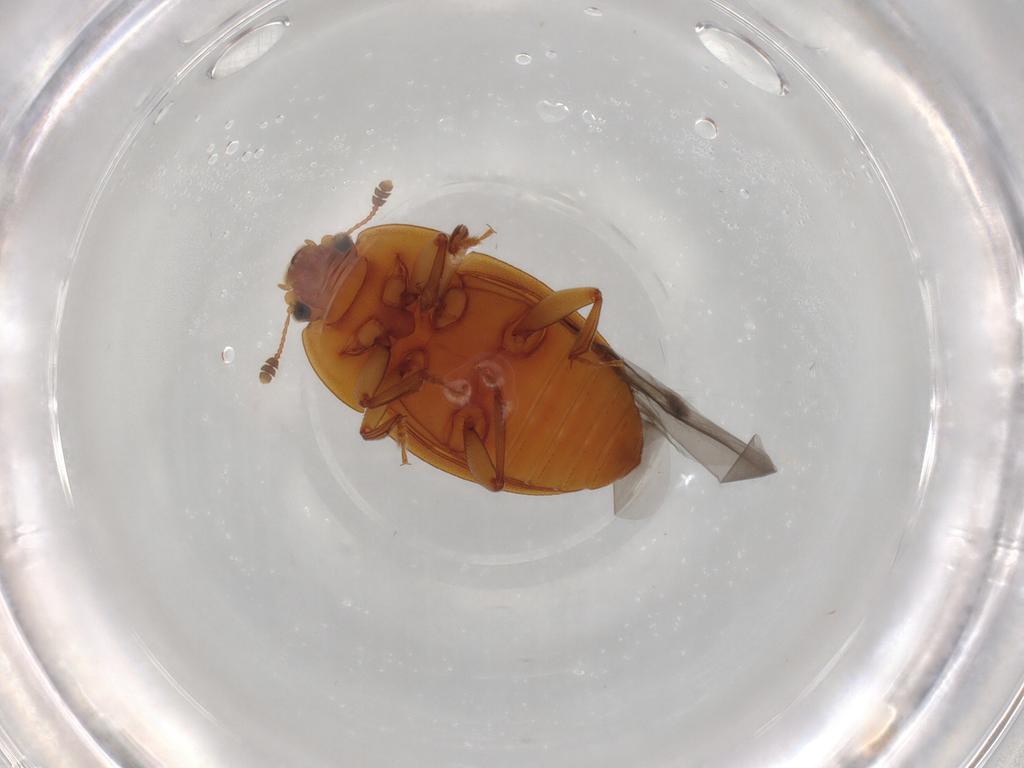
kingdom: Animalia
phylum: Arthropoda
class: Insecta
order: Coleoptera
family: Nitidulidae
